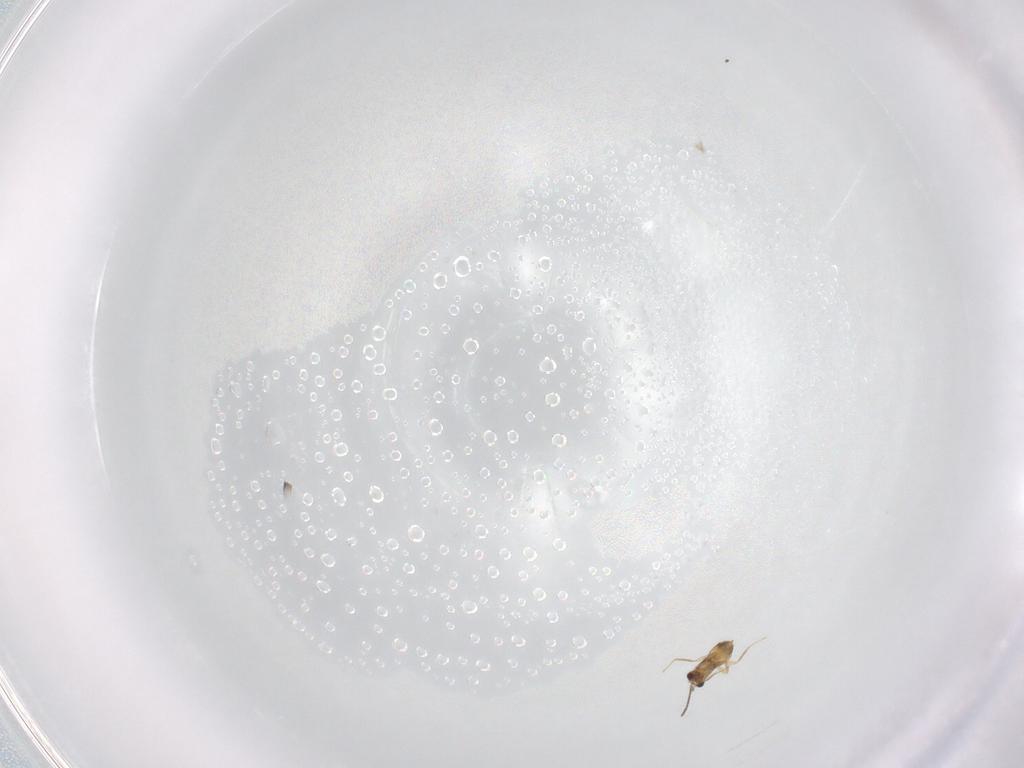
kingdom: Animalia
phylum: Arthropoda
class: Insecta
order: Hymenoptera
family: Mymaridae
